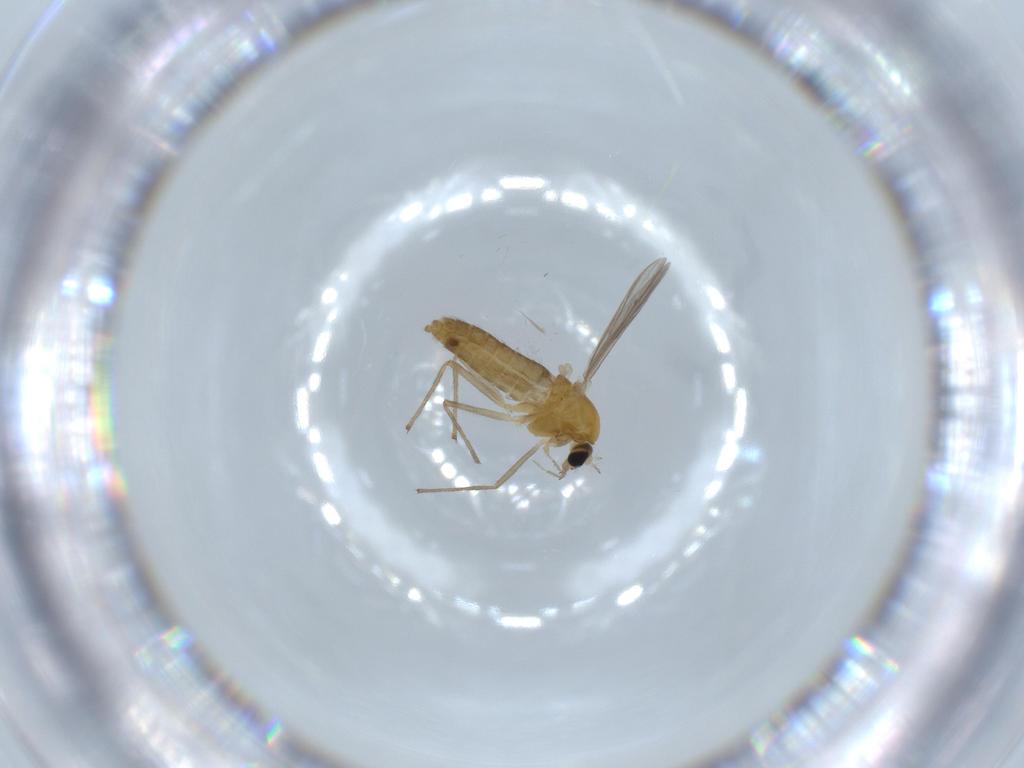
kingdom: Animalia
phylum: Arthropoda
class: Insecta
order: Diptera
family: Chironomidae
